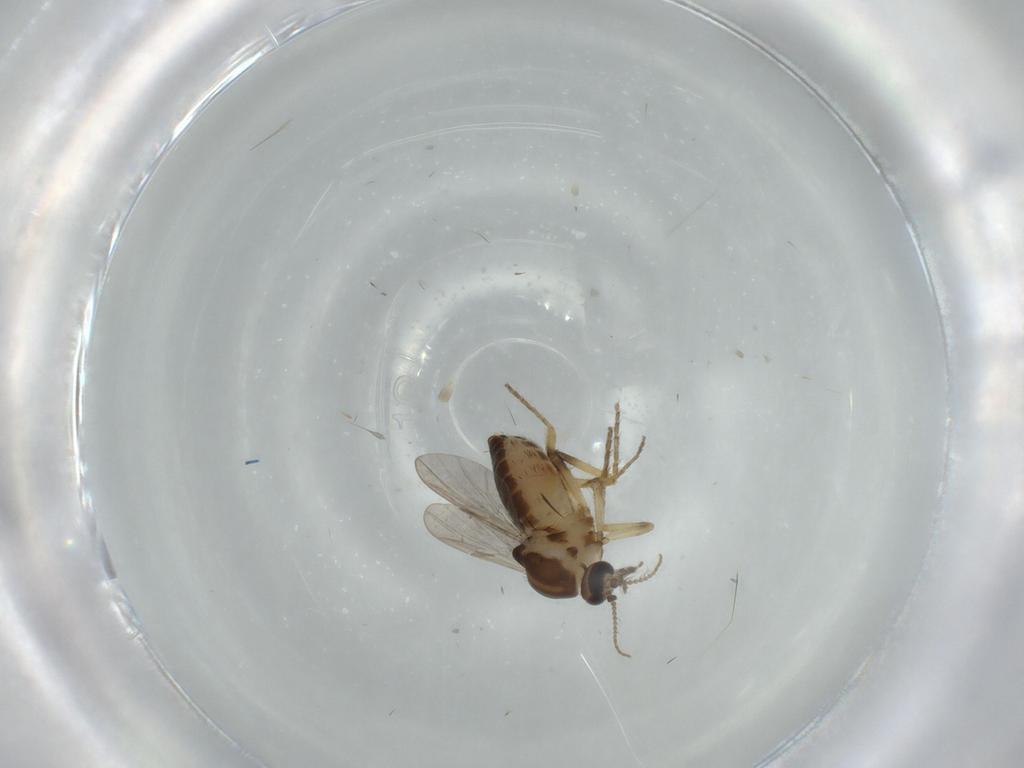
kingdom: Animalia
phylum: Arthropoda
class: Insecta
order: Diptera
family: Ceratopogonidae
